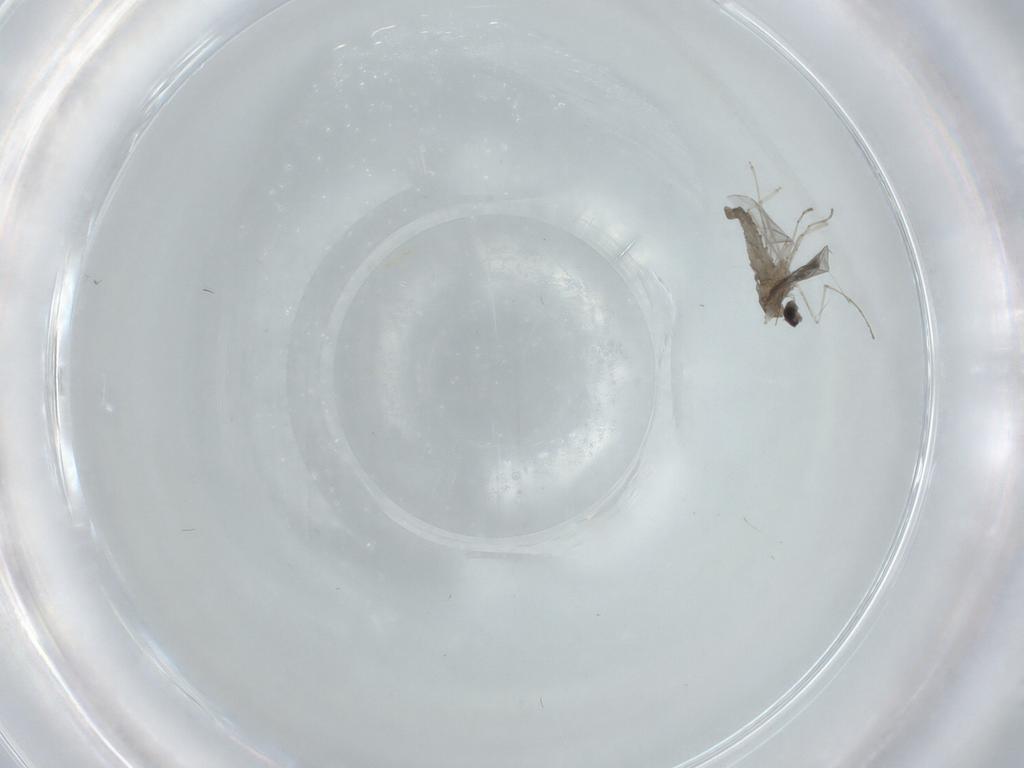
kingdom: Animalia
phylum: Arthropoda
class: Insecta
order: Diptera
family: Cecidomyiidae
